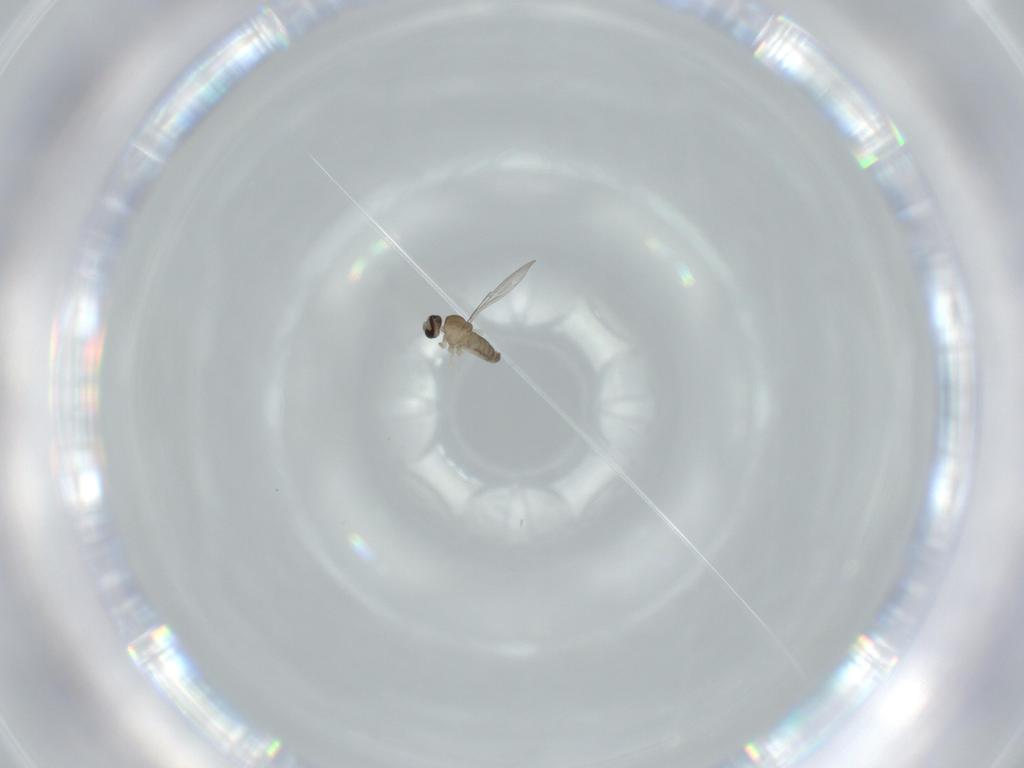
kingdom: Animalia
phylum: Arthropoda
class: Insecta
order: Diptera
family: Cecidomyiidae
